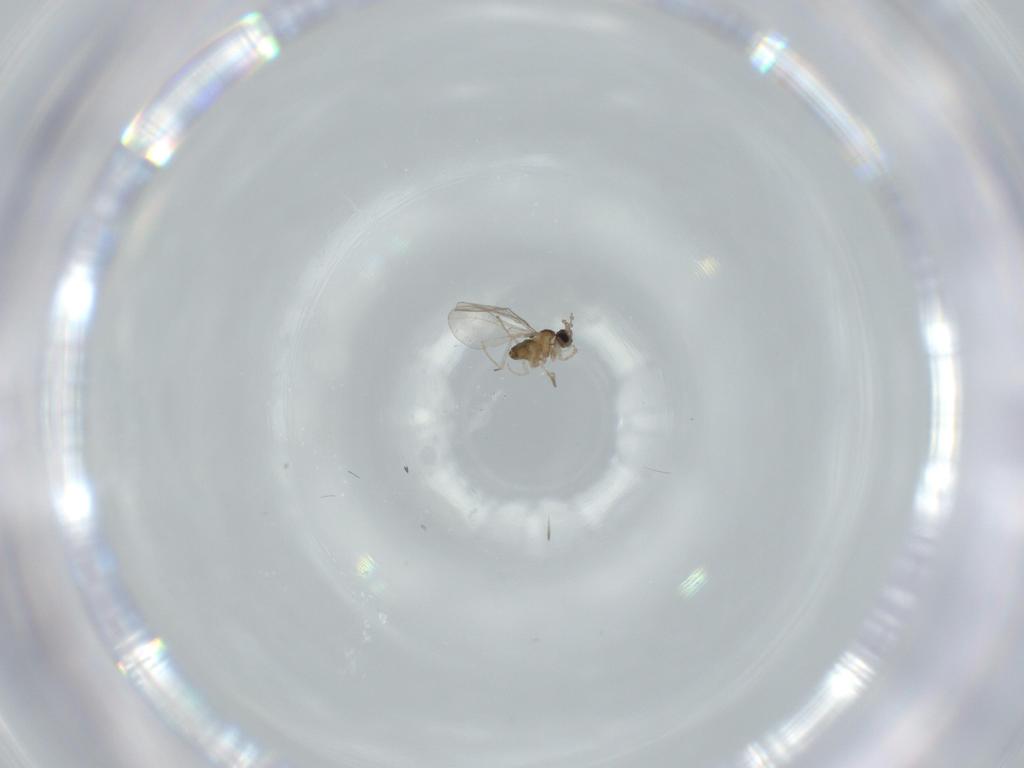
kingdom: Animalia
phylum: Arthropoda
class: Insecta
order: Diptera
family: Cecidomyiidae
